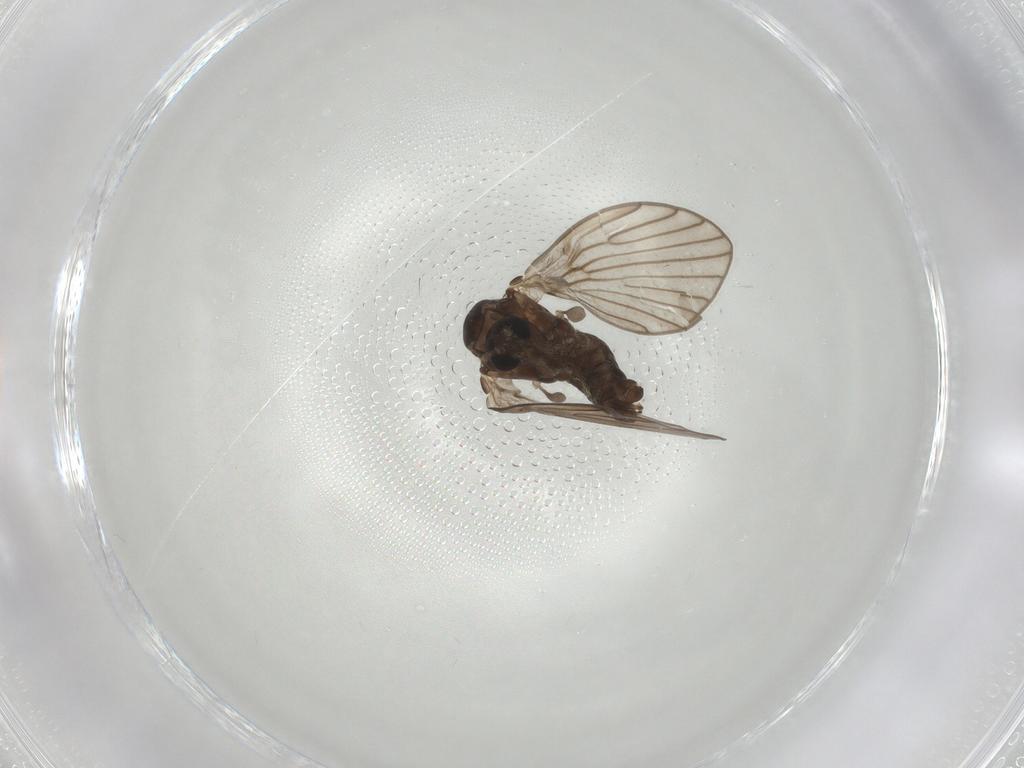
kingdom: Animalia
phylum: Arthropoda
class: Insecta
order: Diptera
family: Psychodidae
